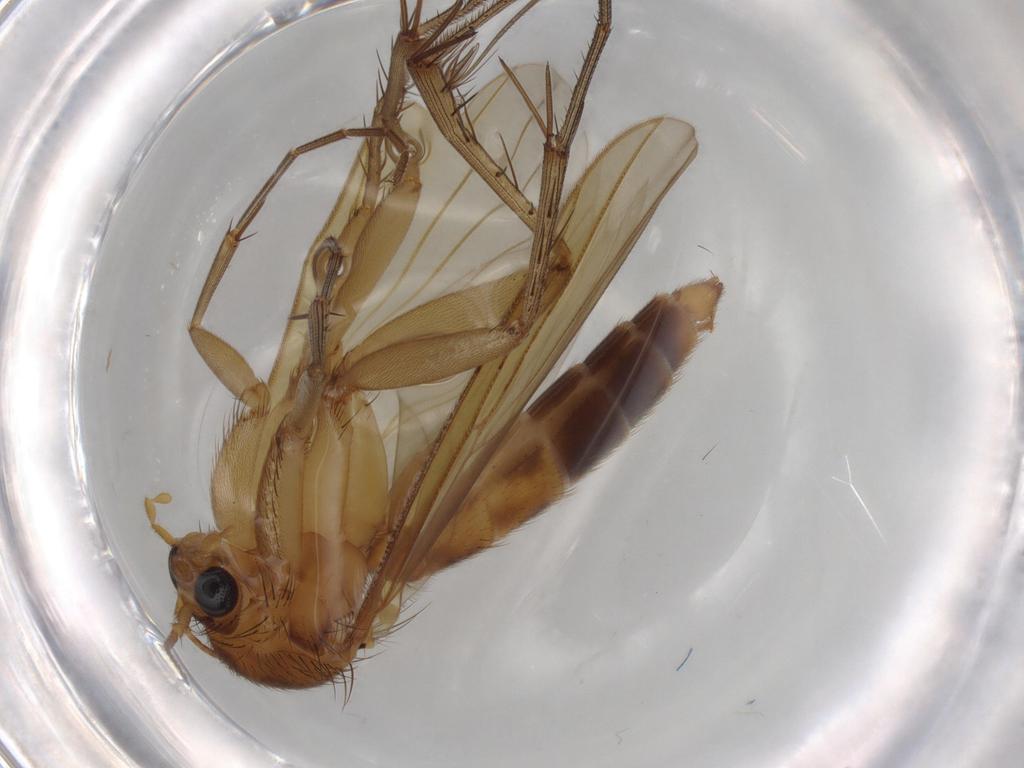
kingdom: Animalia
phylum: Arthropoda
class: Insecta
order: Diptera
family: Mycetophilidae
